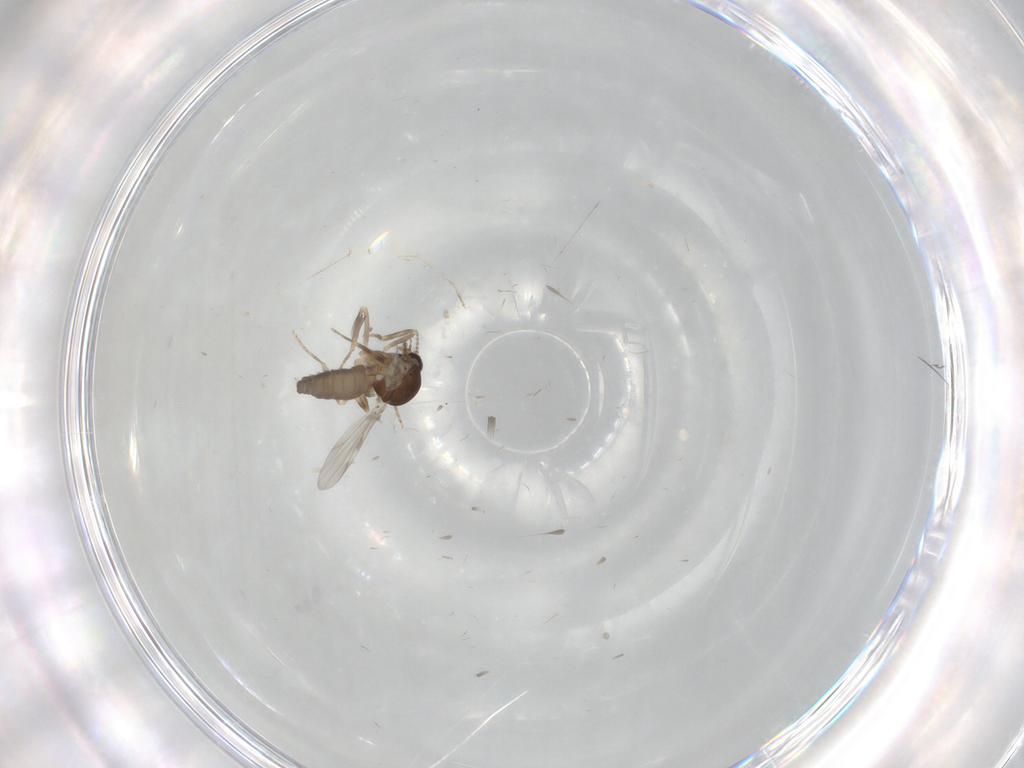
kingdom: Animalia
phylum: Arthropoda
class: Insecta
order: Diptera
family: Ceratopogonidae
